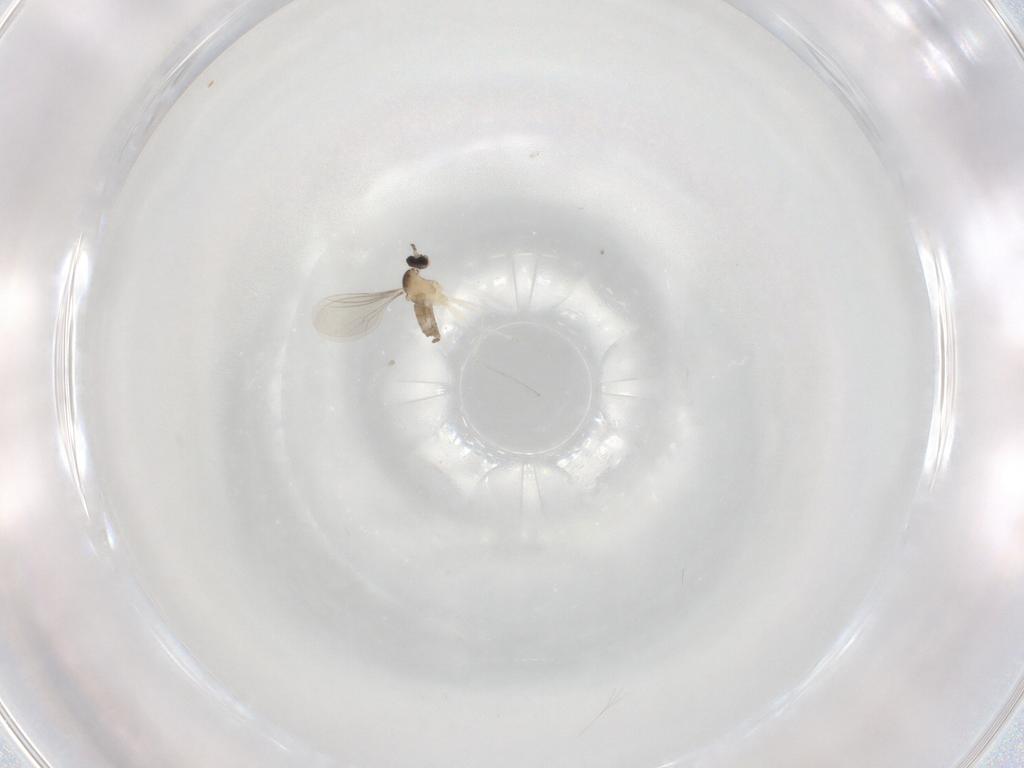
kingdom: Animalia
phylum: Arthropoda
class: Insecta
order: Diptera
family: Cecidomyiidae
